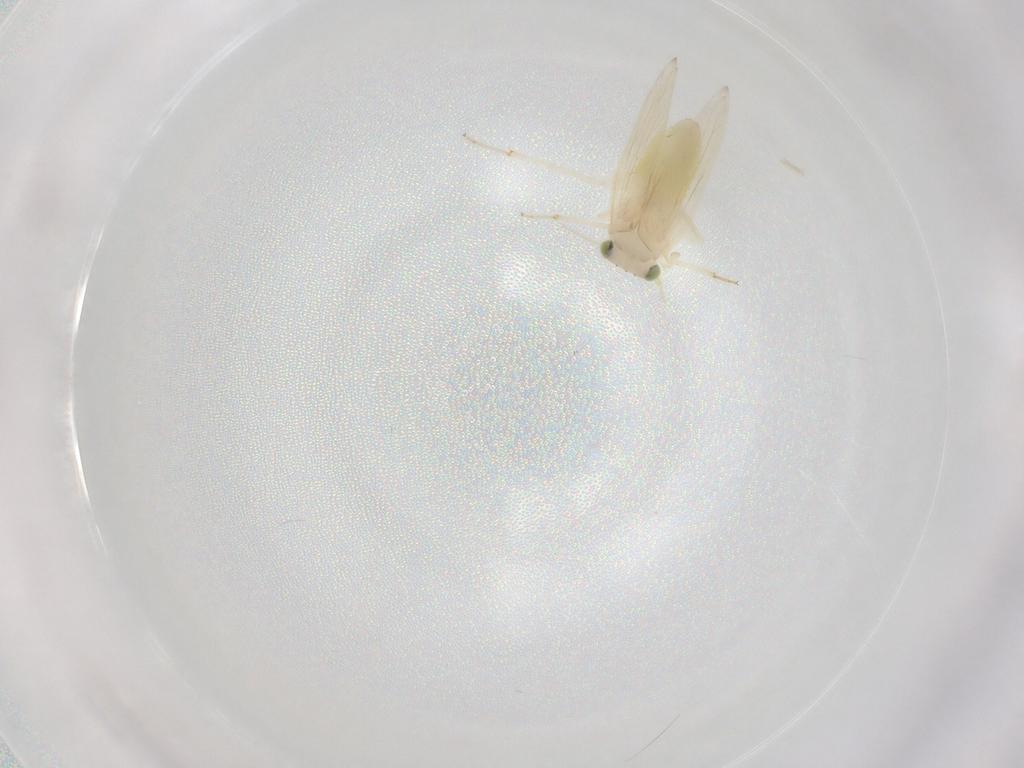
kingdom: Animalia
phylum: Arthropoda
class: Insecta
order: Psocodea
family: Lepidopsocidae
